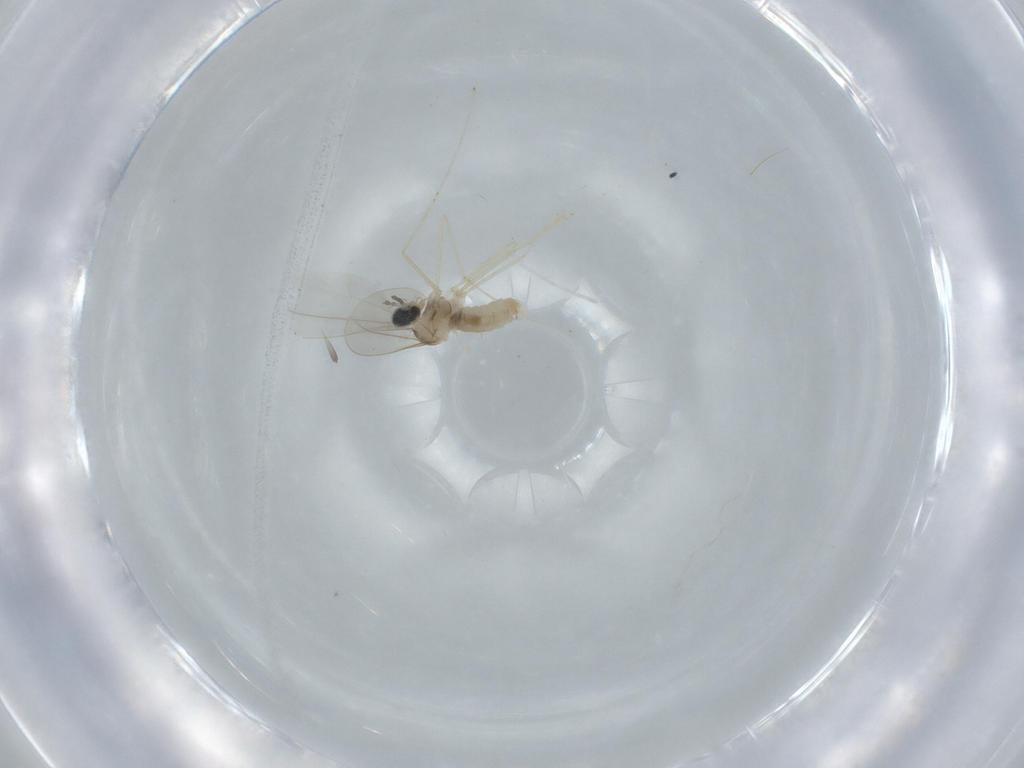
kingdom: Animalia
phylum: Arthropoda
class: Insecta
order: Diptera
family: Cecidomyiidae
